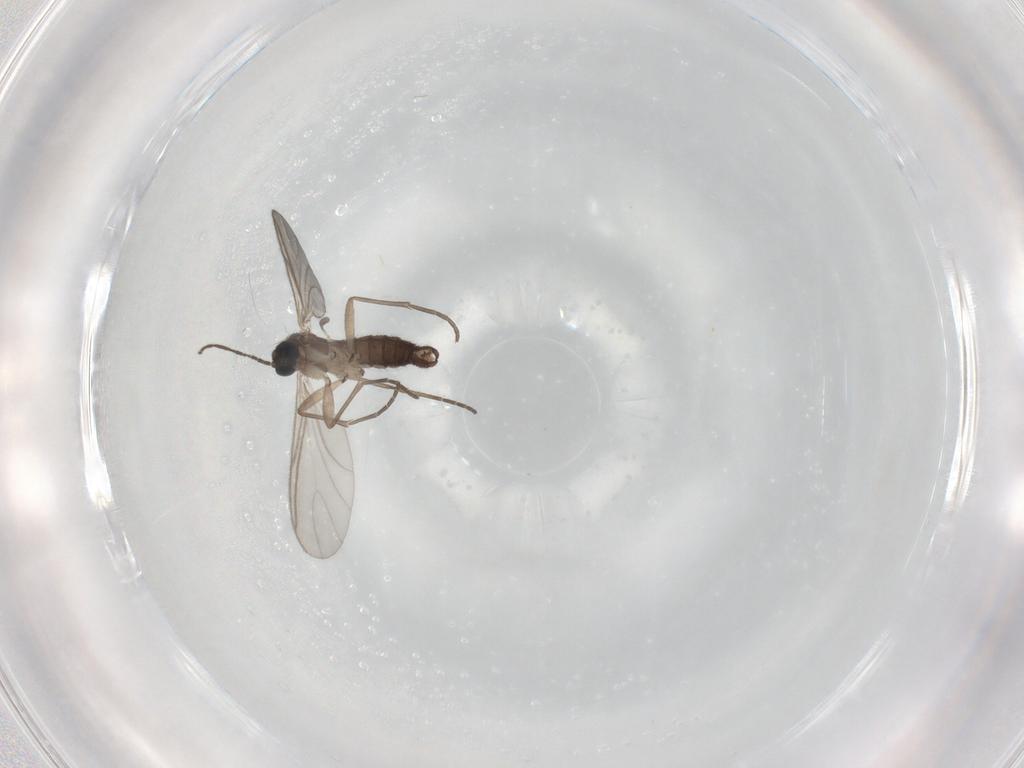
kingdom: Animalia
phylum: Arthropoda
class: Insecta
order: Diptera
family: Sciaridae
